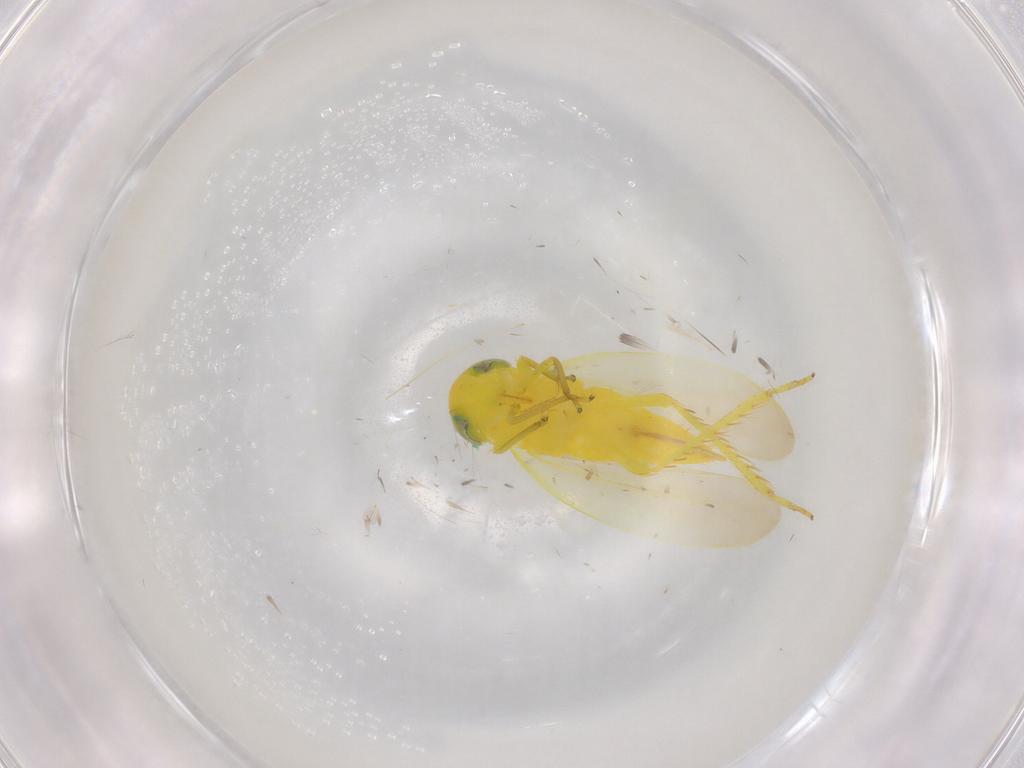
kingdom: Animalia
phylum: Arthropoda
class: Insecta
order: Hemiptera
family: Cicadellidae
